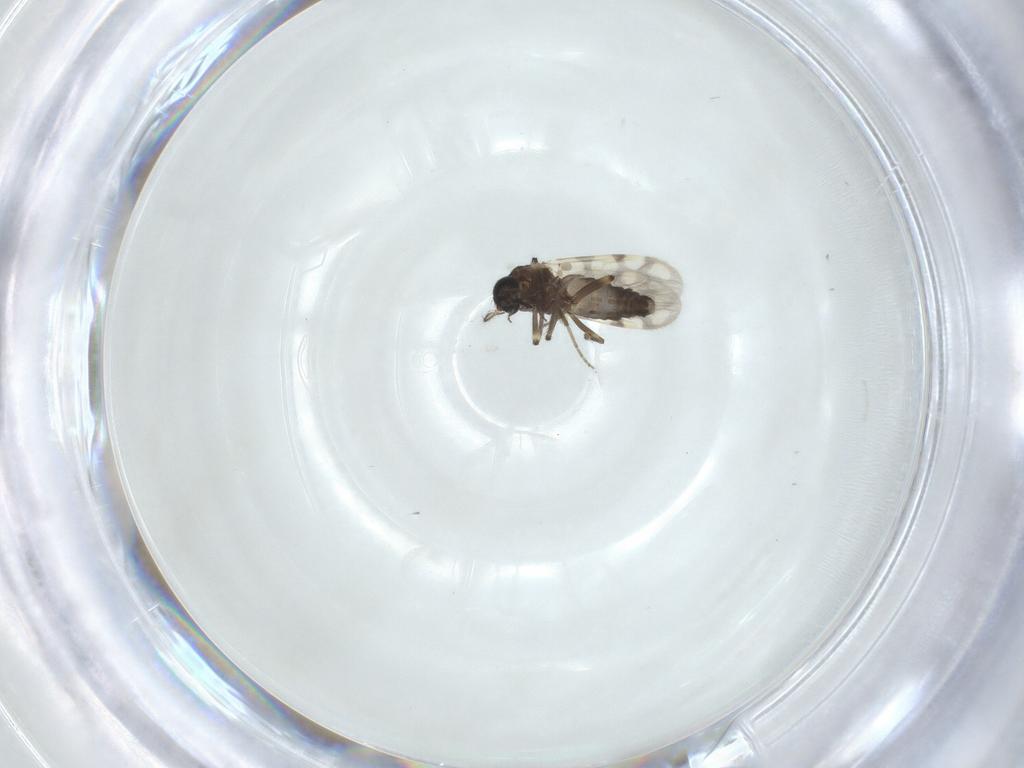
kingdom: Animalia
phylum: Arthropoda
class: Insecta
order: Diptera
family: Ceratopogonidae
